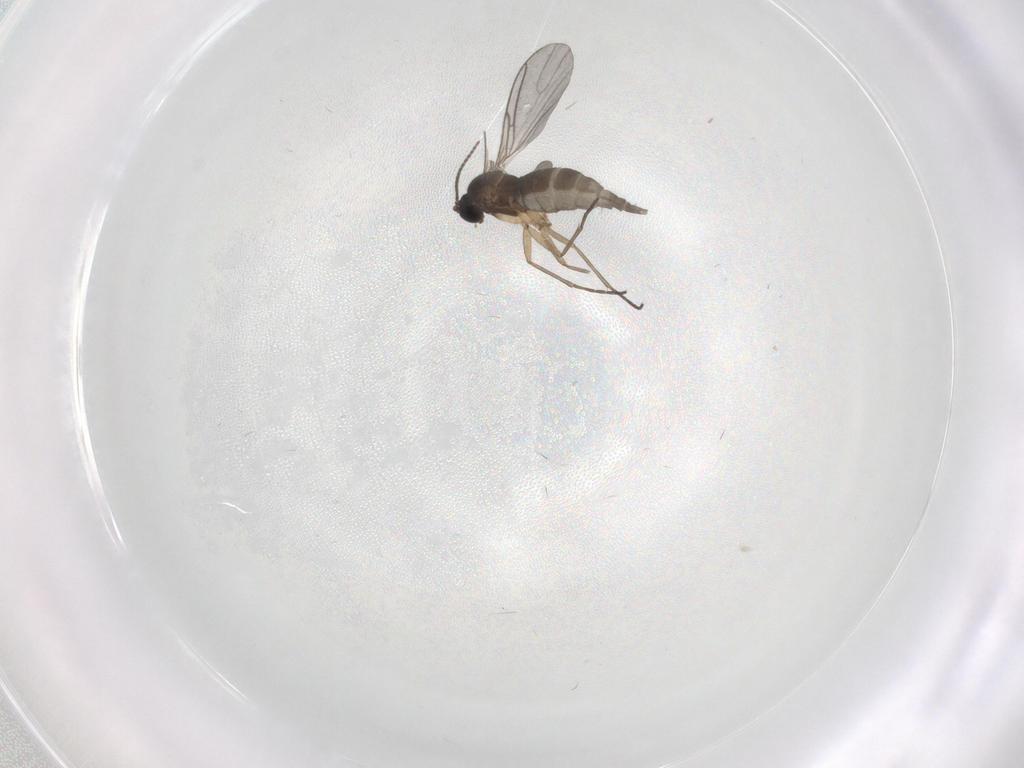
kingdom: Animalia
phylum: Arthropoda
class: Insecta
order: Diptera
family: Sciaridae
